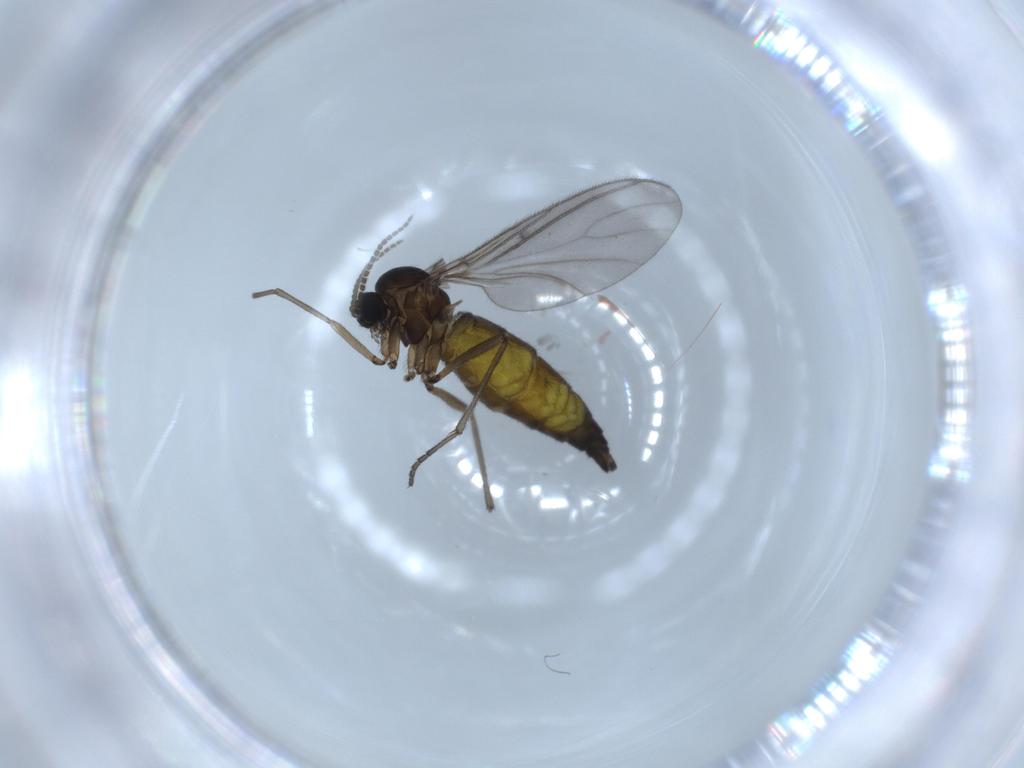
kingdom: Animalia
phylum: Arthropoda
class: Insecta
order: Diptera
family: Sciaridae
